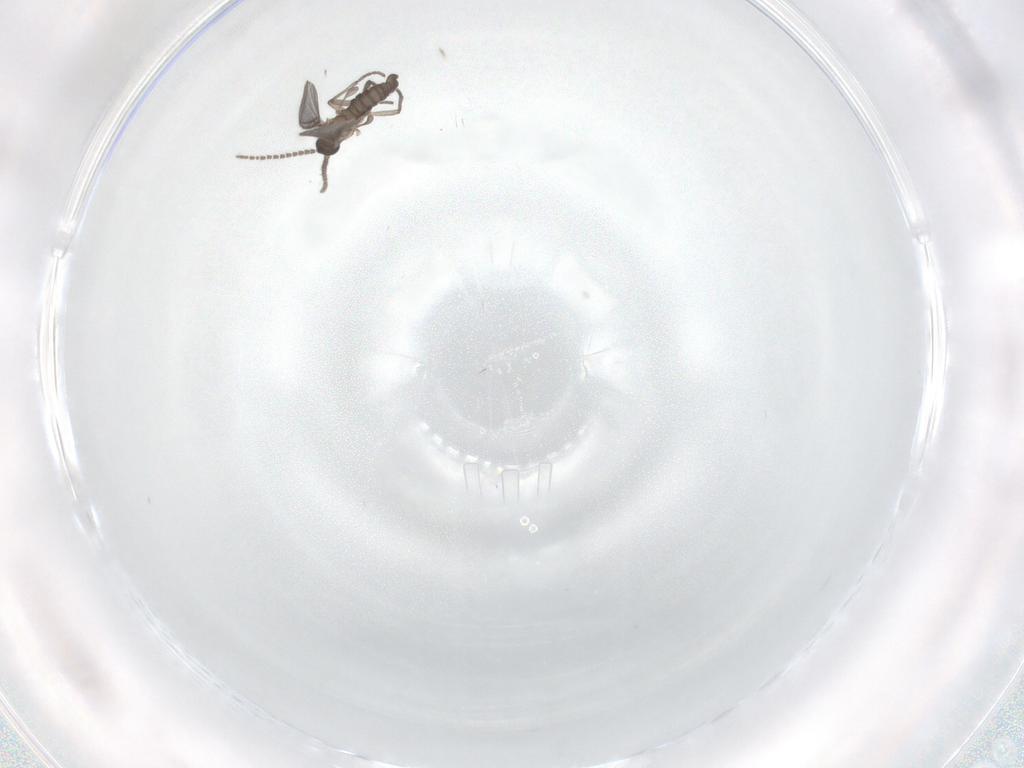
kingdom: Animalia
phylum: Arthropoda
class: Insecta
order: Diptera
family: Sciaridae
